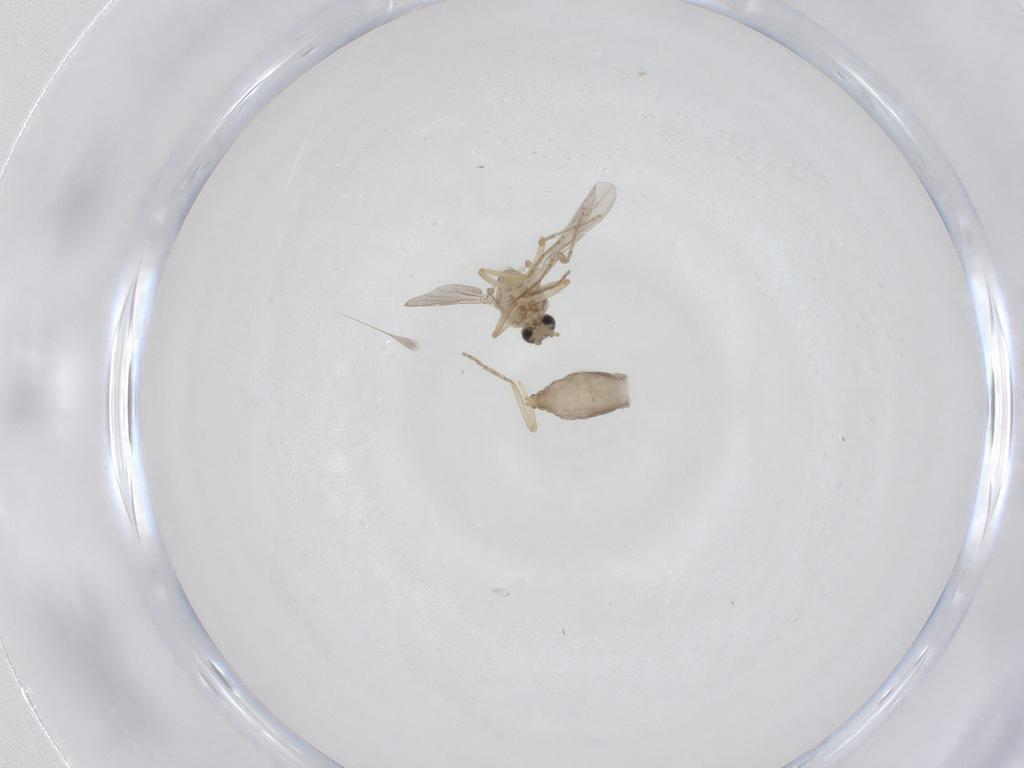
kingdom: Animalia
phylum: Arthropoda
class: Insecta
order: Diptera
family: Ceratopogonidae
